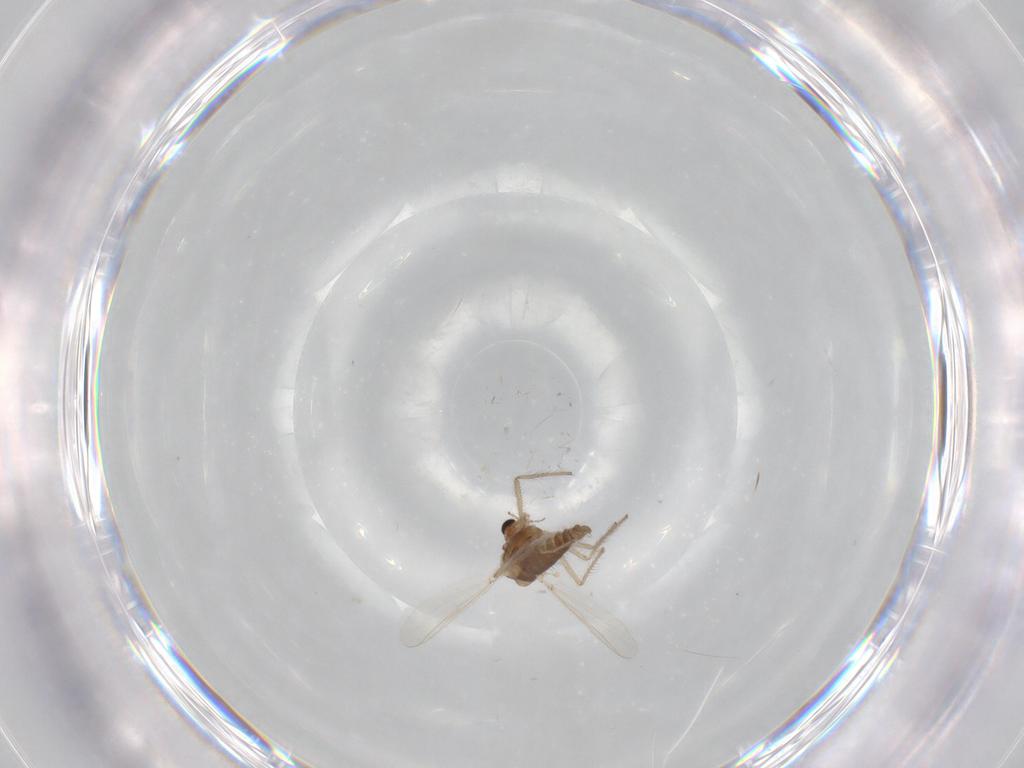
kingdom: Animalia
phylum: Arthropoda
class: Insecta
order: Diptera
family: Chironomidae
